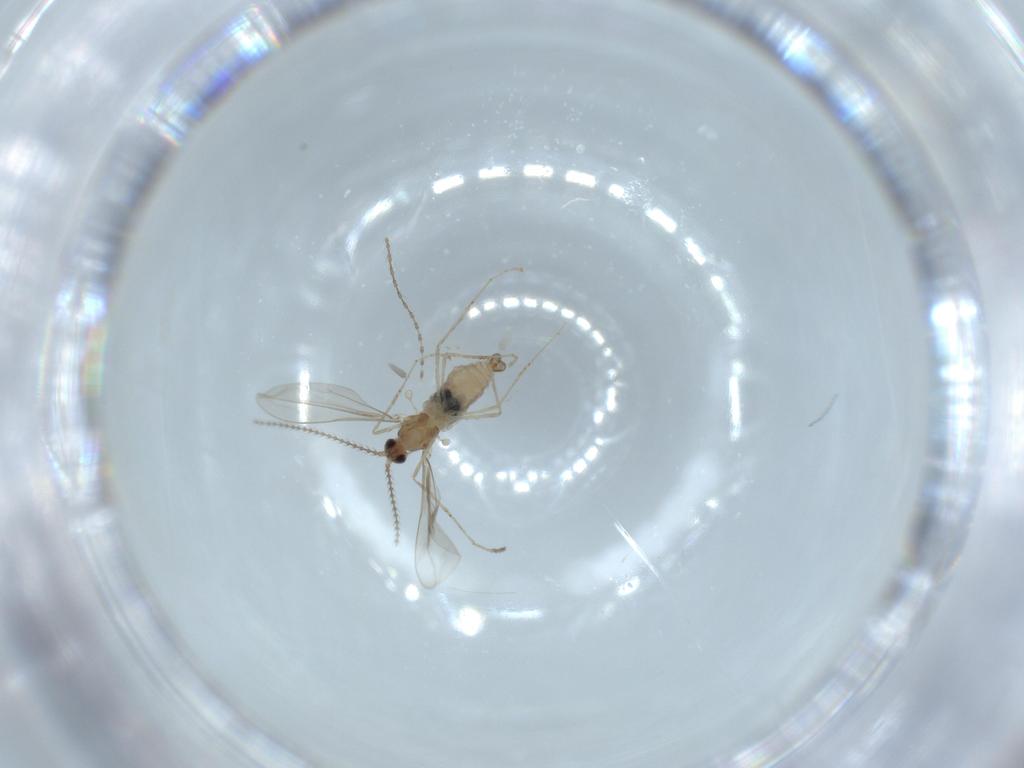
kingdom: Animalia
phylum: Arthropoda
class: Insecta
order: Diptera
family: Cecidomyiidae
